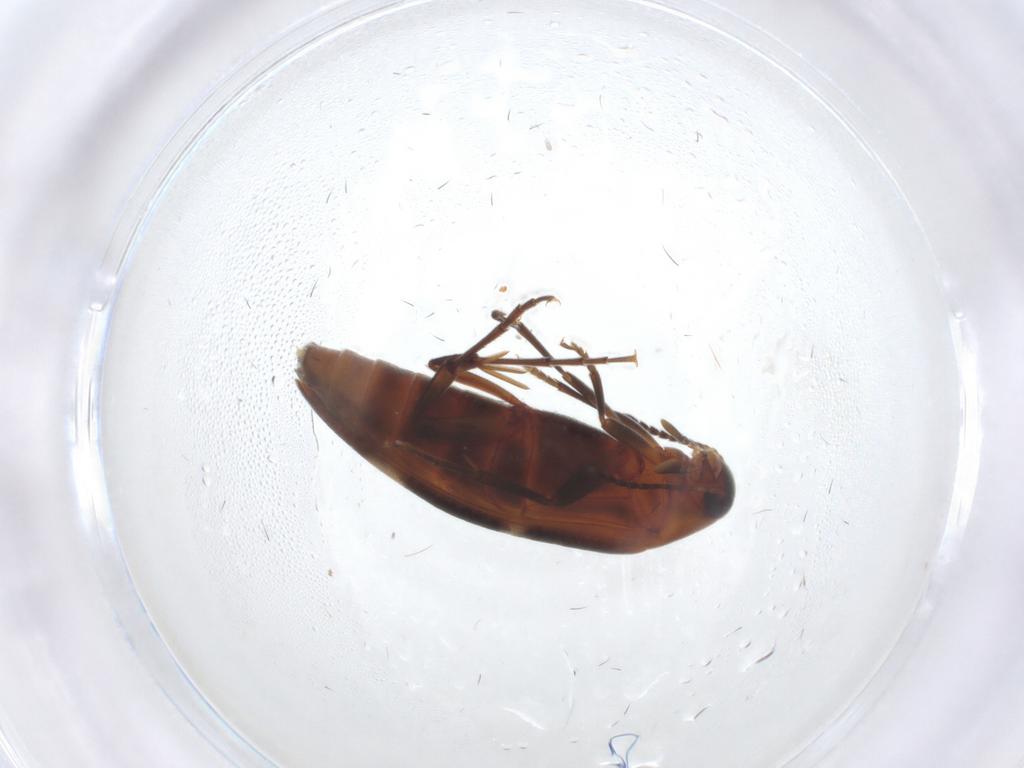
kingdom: Animalia
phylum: Arthropoda
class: Insecta
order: Coleoptera
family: Melandryidae
